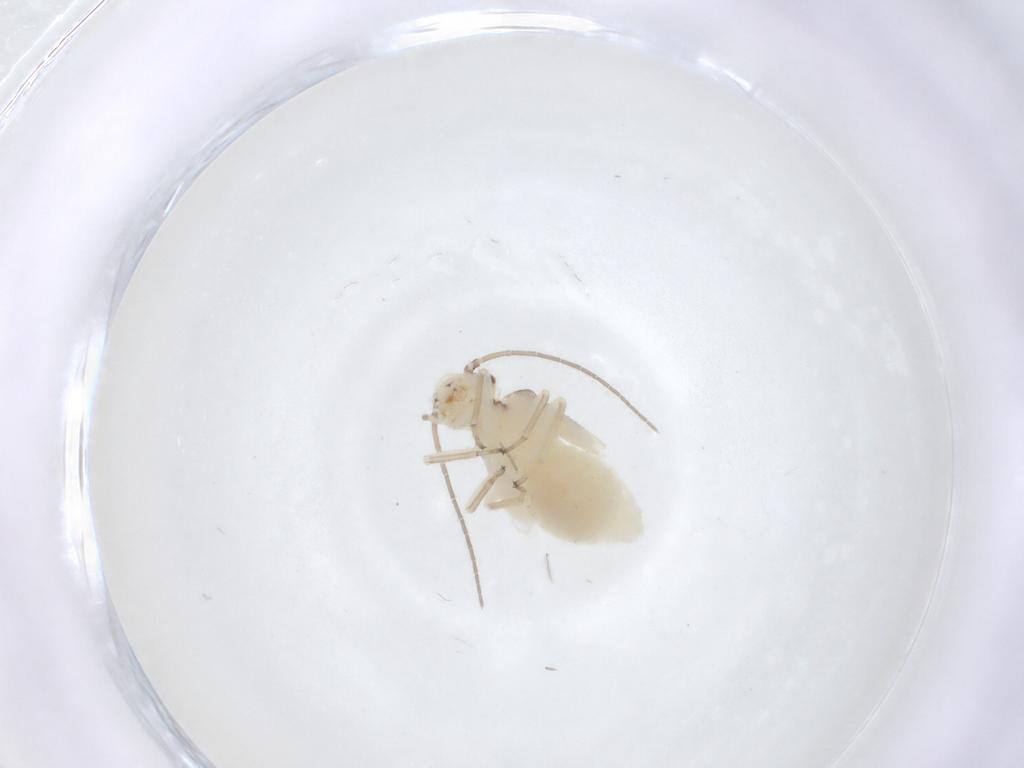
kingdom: Animalia
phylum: Arthropoda
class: Insecta
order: Psocodea
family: Caeciliusidae
